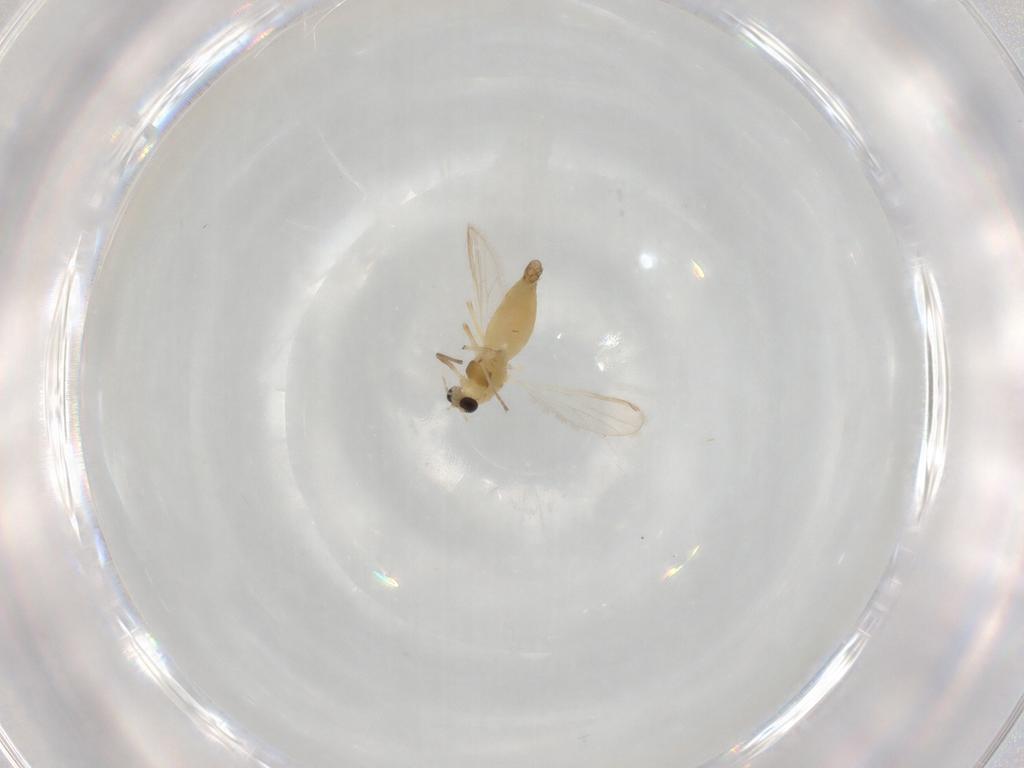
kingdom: Animalia
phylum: Arthropoda
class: Insecta
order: Diptera
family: Chironomidae
